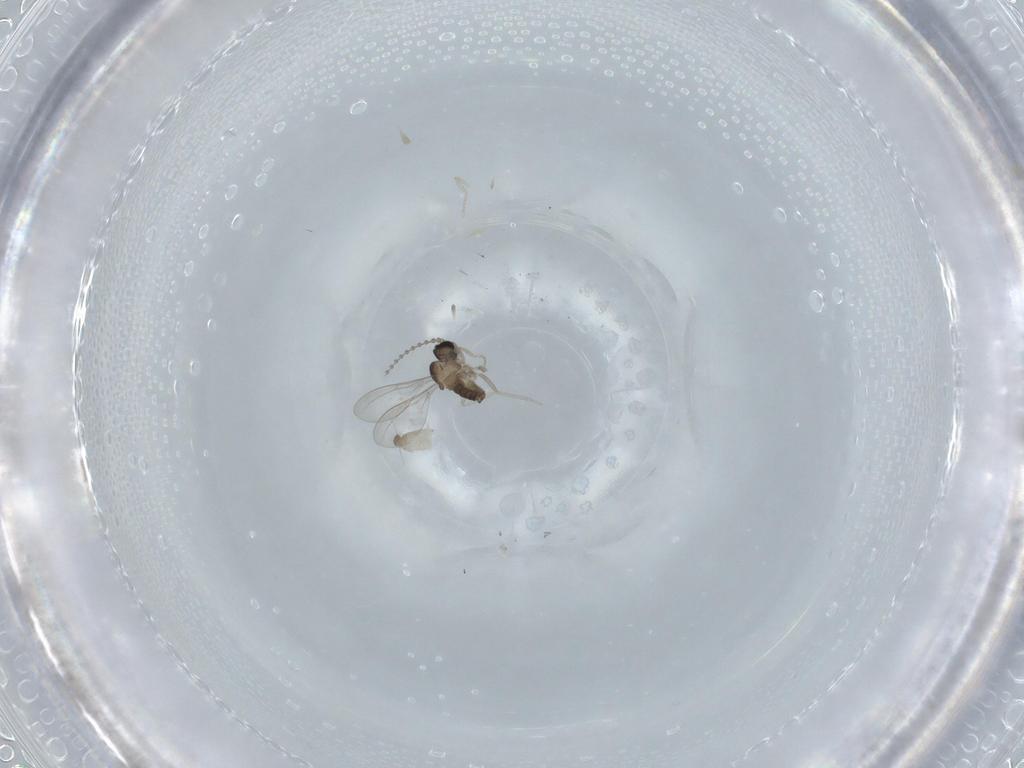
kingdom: Animalia
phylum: Arthropoda
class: Insecta
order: Diptera
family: Cecidomyiidae
